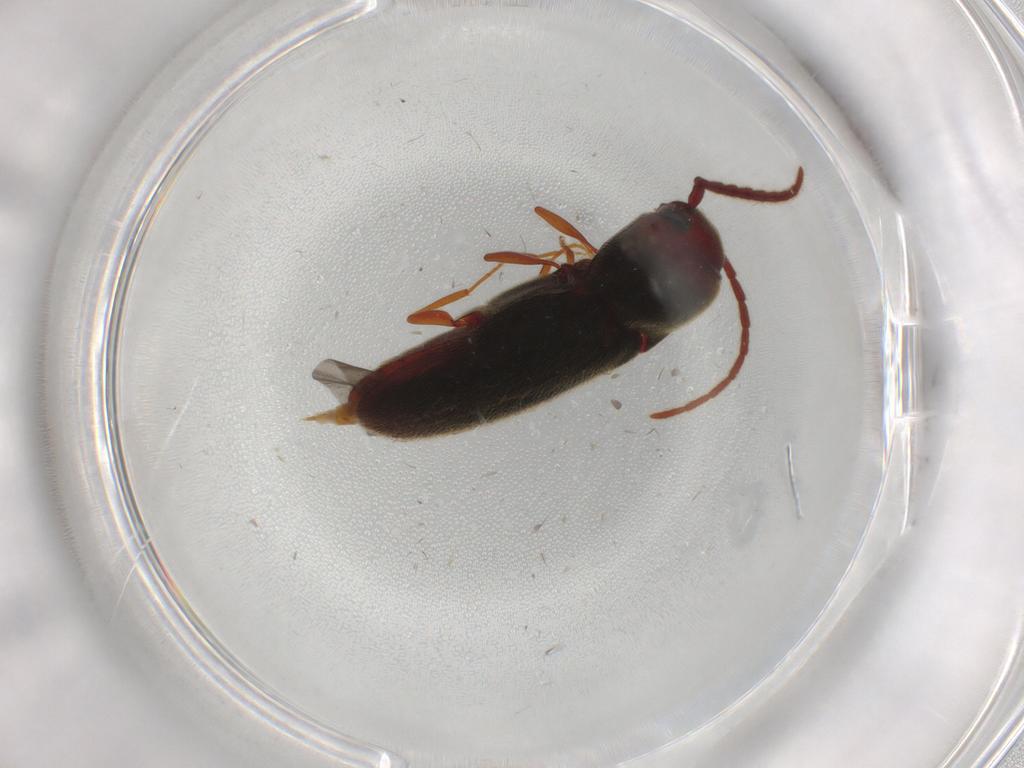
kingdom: Animalia
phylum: Arthropoda
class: Insecta
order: Coleoptera
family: Eucnemidae
